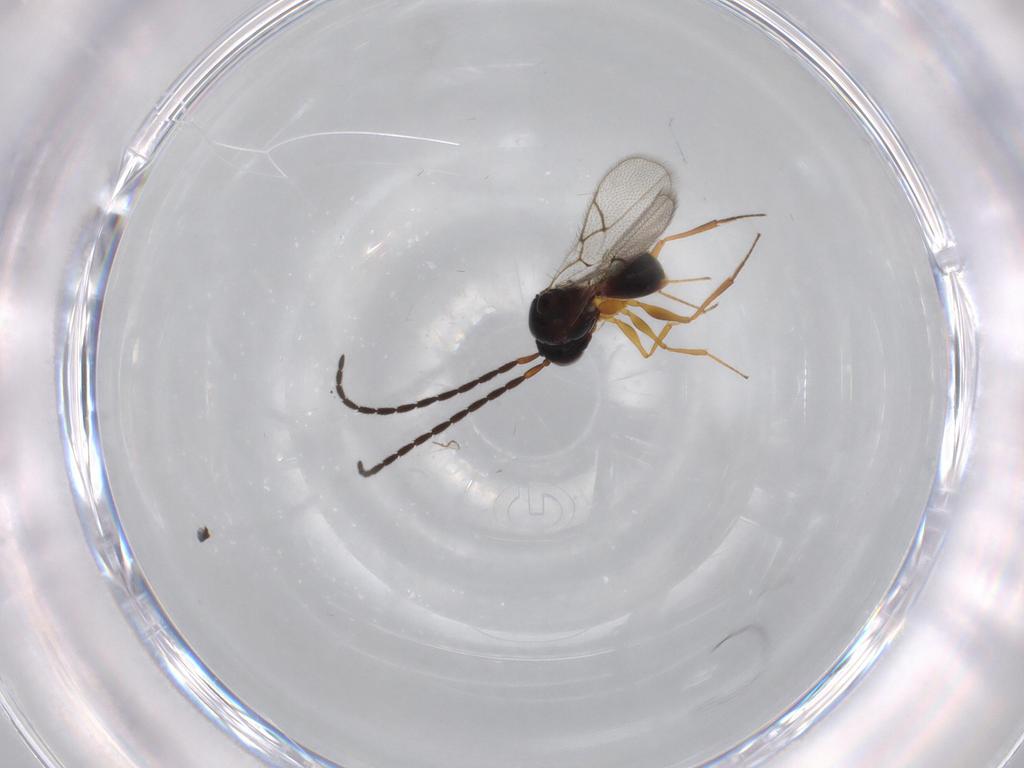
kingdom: Animalia
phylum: Arthropoda
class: Insecta
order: Hymenoptera
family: Figitidae
